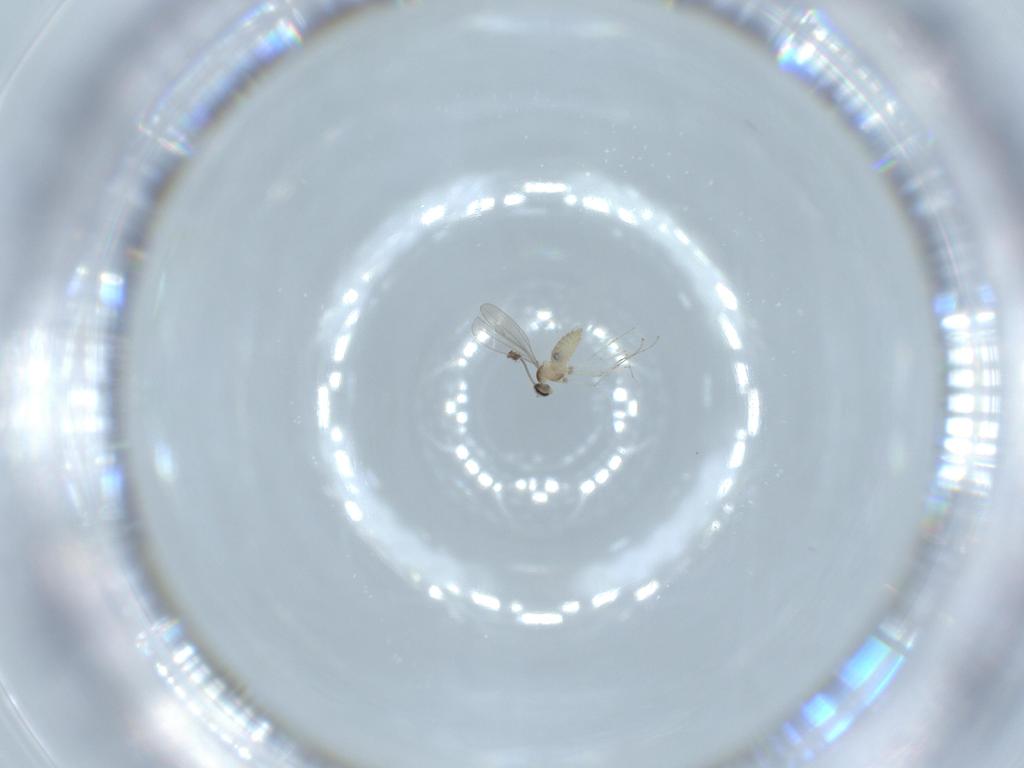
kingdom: Animalia
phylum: Arthropoda
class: Insecta
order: Diptera
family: Cecidomyiidae
